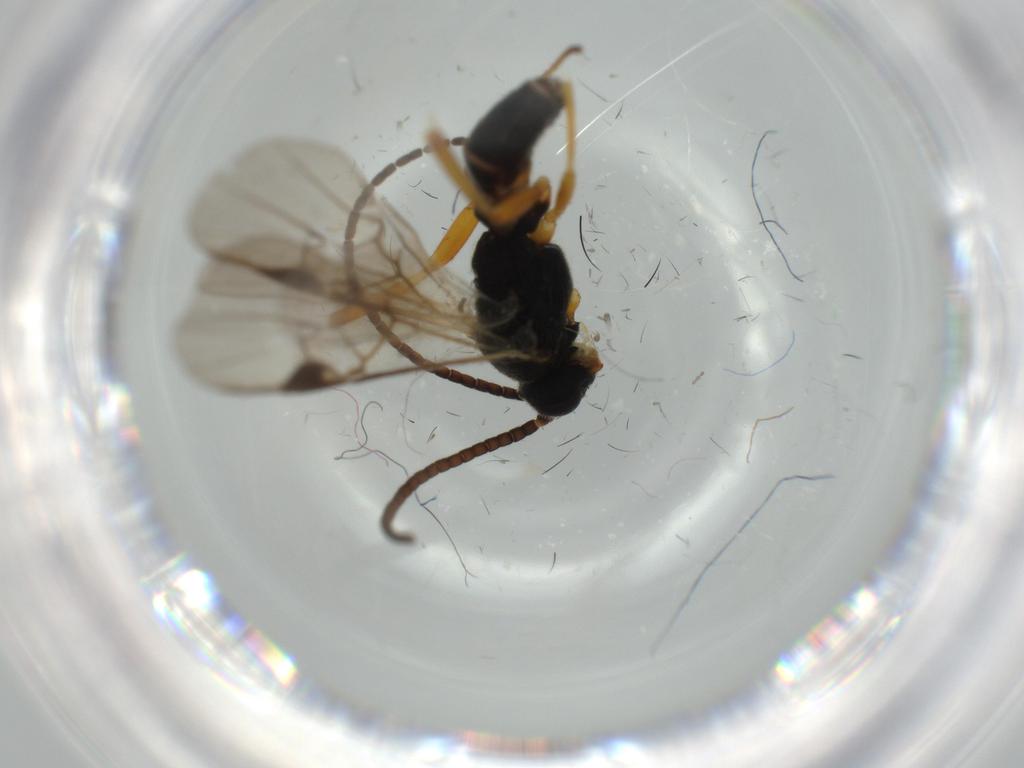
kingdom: Animalia
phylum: Arthropoda
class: Insecta
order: Hymenoptera
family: Braconidae
